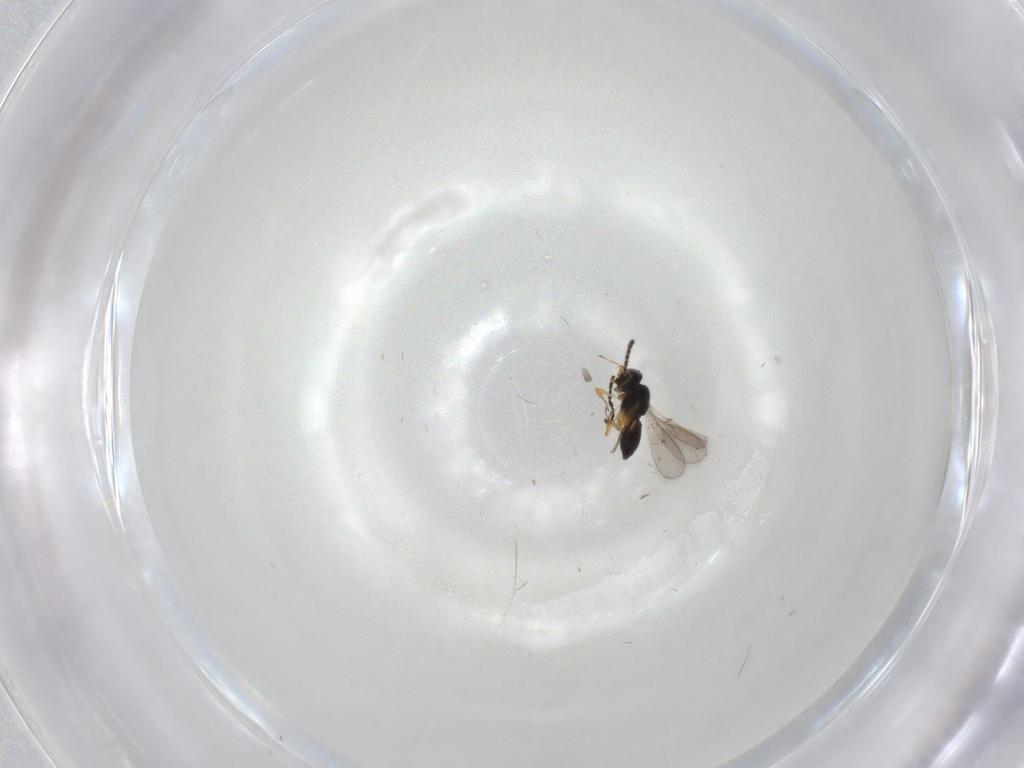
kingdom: Animalia
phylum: Arthropoda
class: Insecta
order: Hymenoptera
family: Scelionidae
